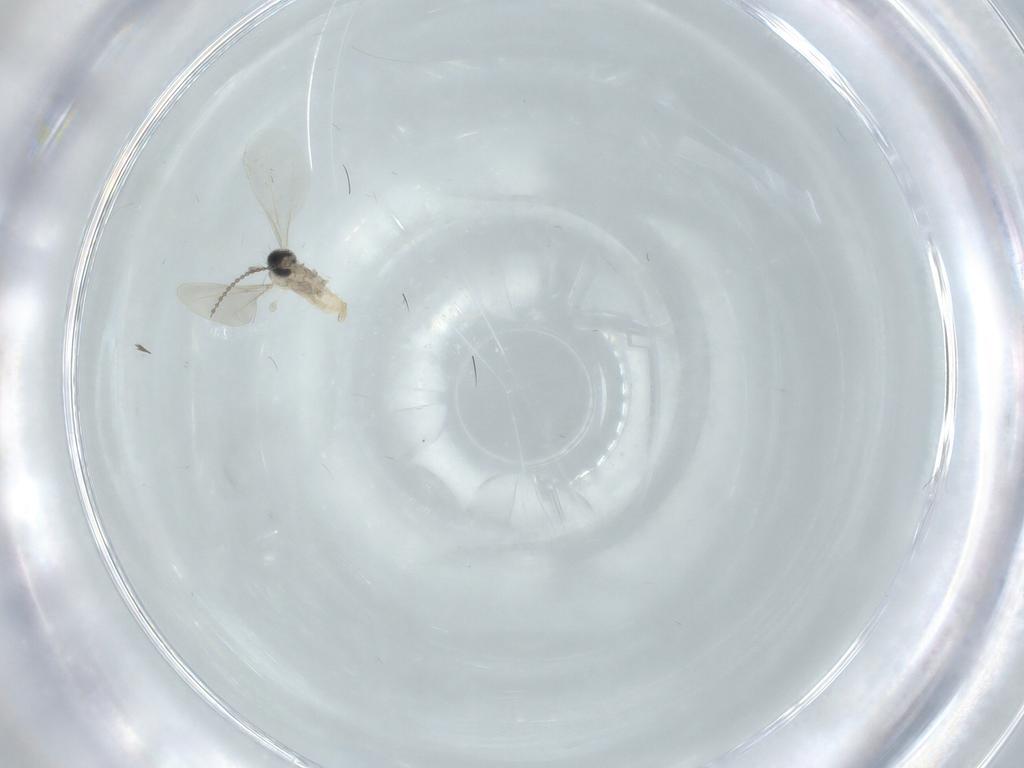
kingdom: Animalia
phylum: Arthropoda
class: Insecta
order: Diptera
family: Cecidomyiidae
